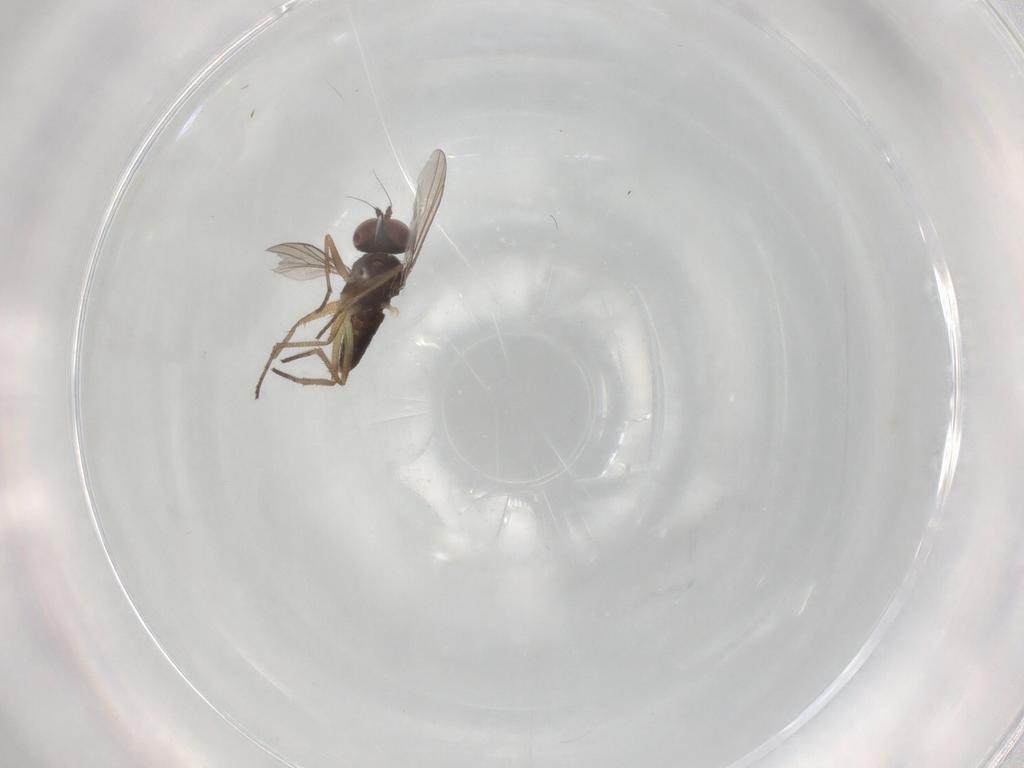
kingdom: Animalia
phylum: Arthropoda
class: Insecta
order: Diptera
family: Dolichopodidae
